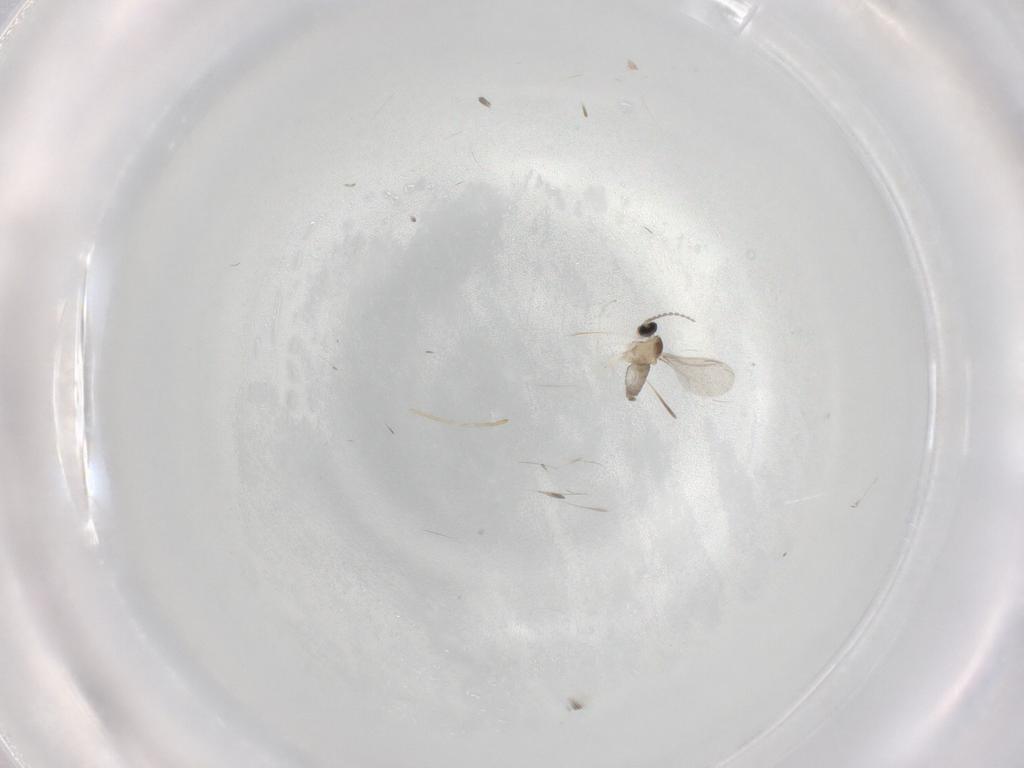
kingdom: Animalia
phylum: Arthropoda
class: Insecta
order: Diptera
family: Cecidomyiidae
